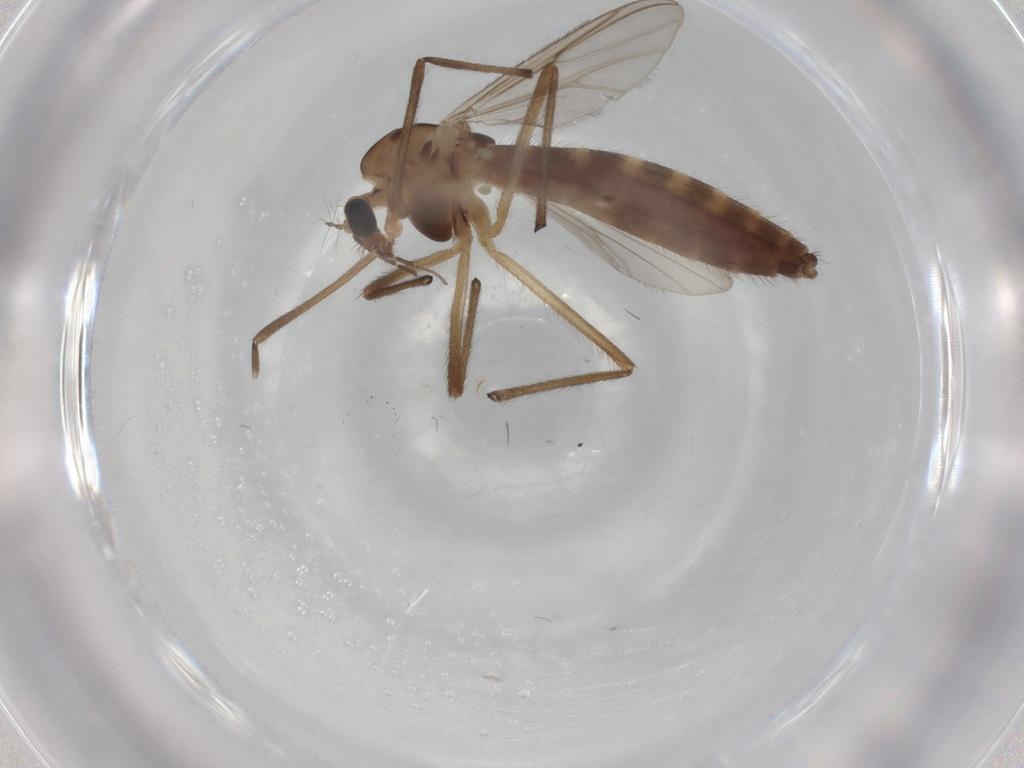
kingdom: Animalia
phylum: Arthropoda
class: Insecta
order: Diptera
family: Chironomidae
